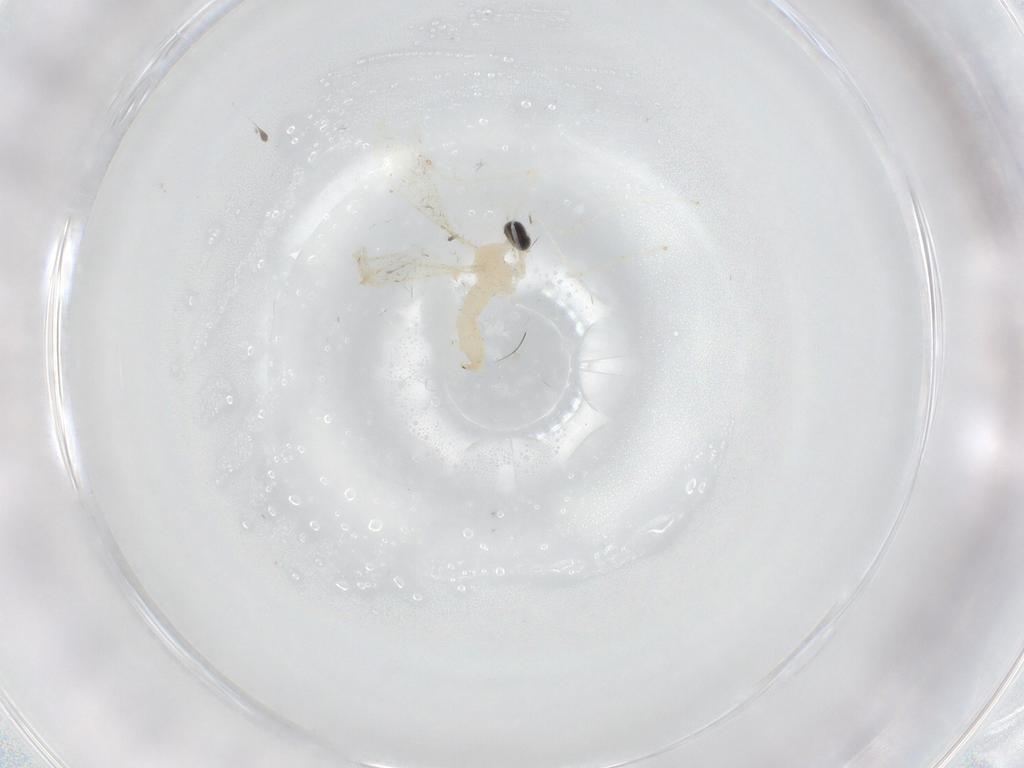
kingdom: Animalia
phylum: Arthropoda
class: Insecta
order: Diptera
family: Cecidomyiidae
